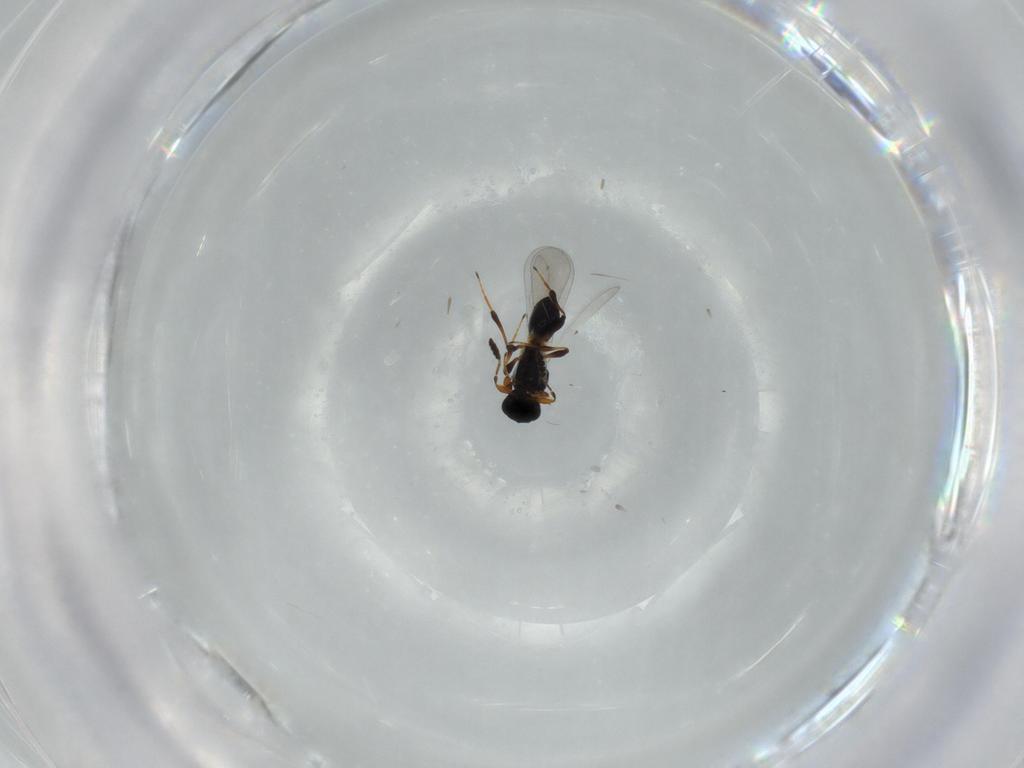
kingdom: Animalia
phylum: Arthropoda
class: Insecta
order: Hymenoptera
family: Platygastridae
